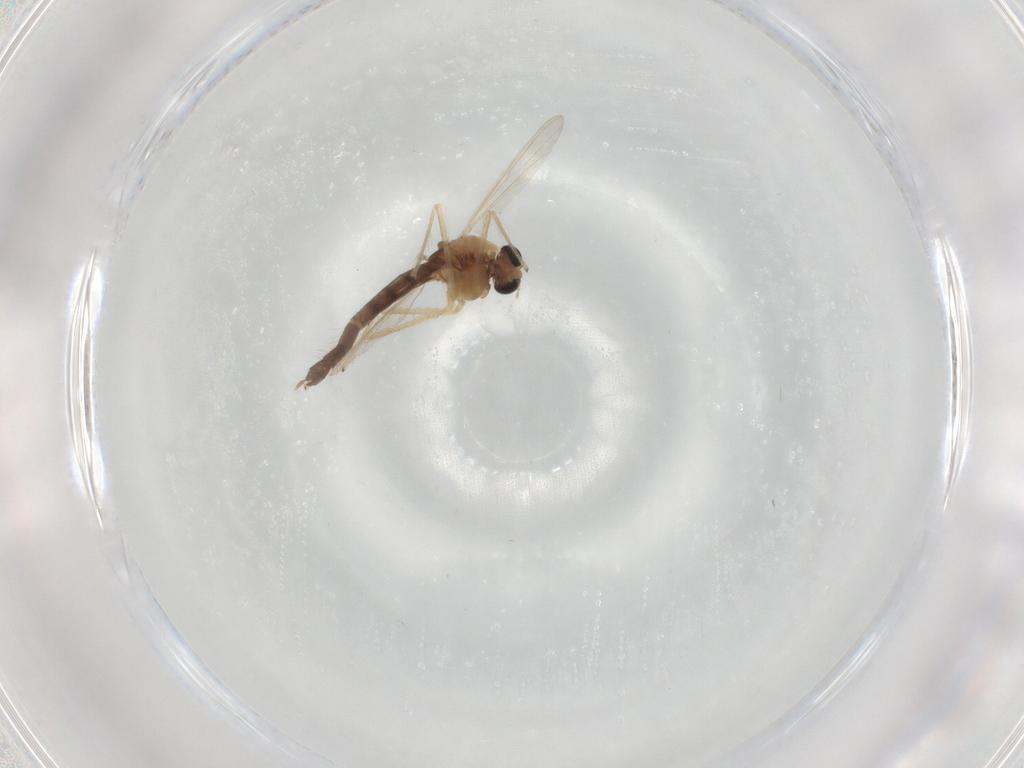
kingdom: Animalia
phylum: Arthropoda
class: Insecta
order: Diptera
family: Chironomidae
